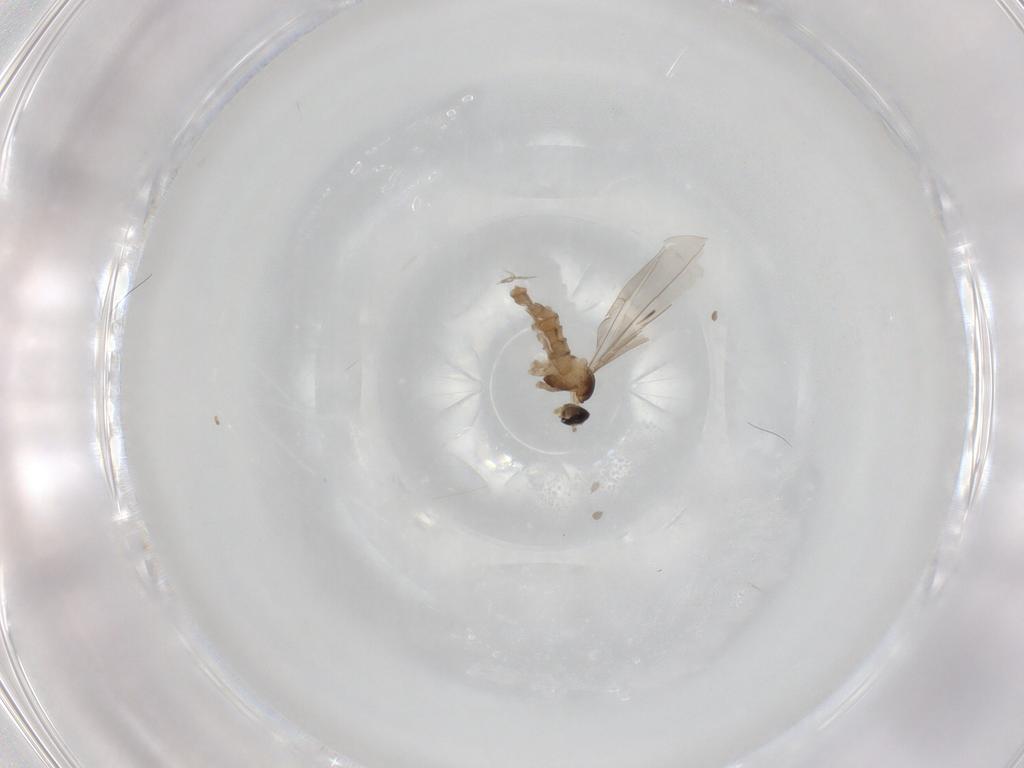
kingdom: Animalia
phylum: Arthropoda
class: Insecta
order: Diptera
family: Cecidomyiidae
